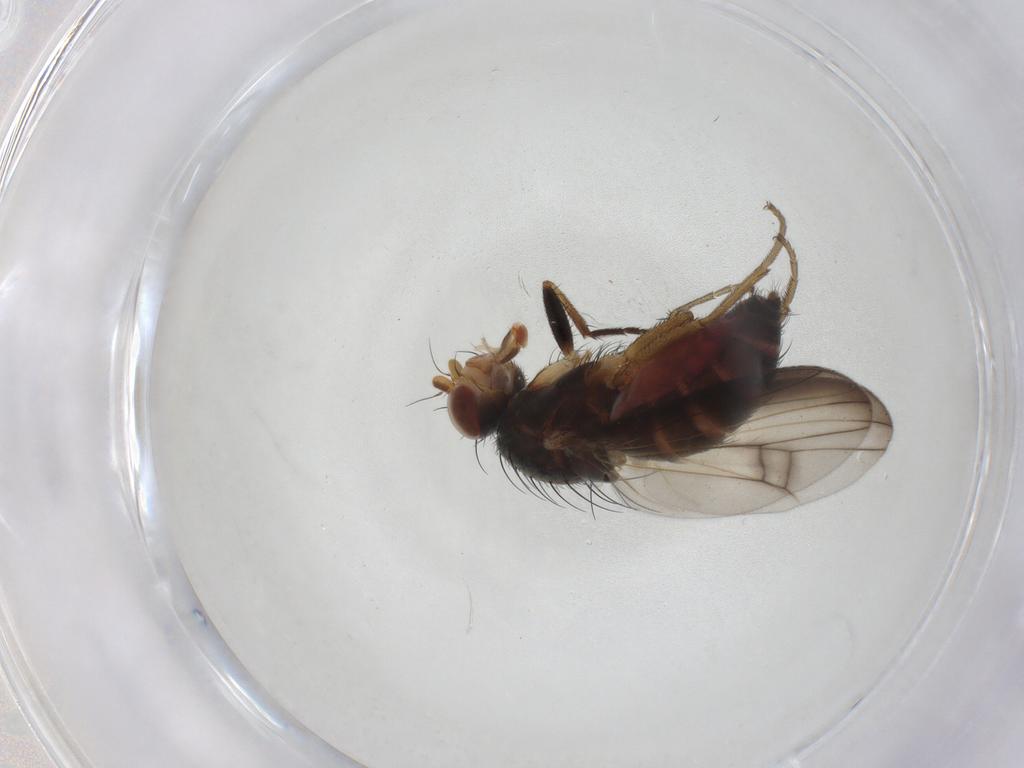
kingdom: Animalia
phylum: Arthropoda
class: Insecta
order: Diptera
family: Heleomyzidae
